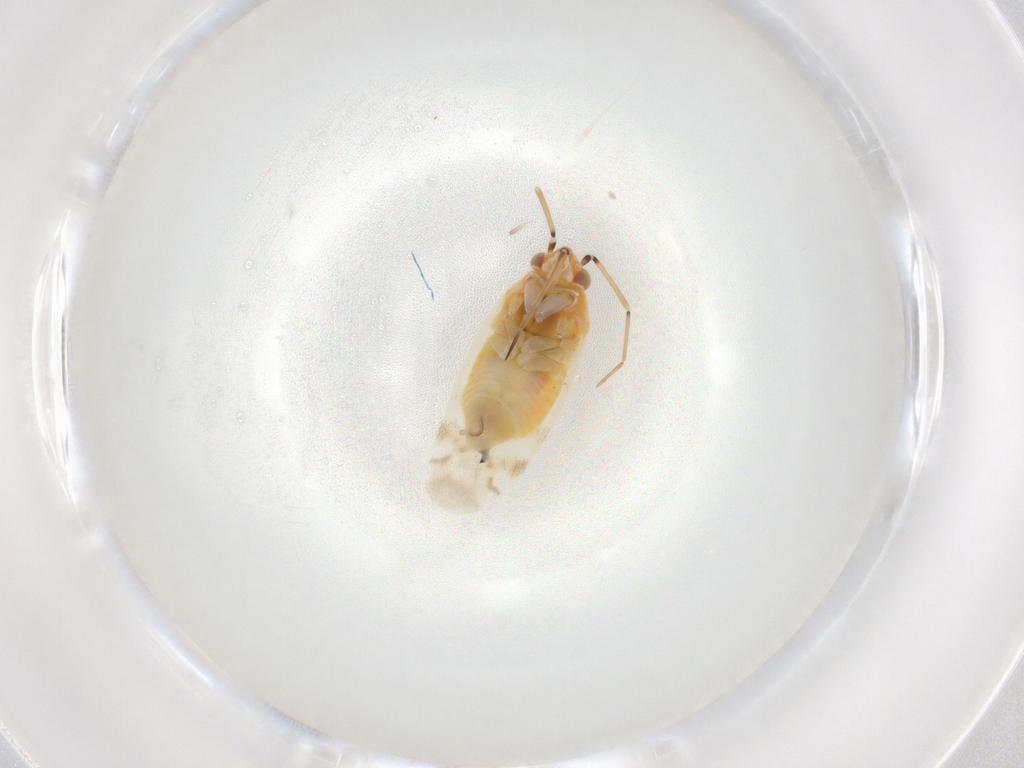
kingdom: Animalia
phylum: Arthropoda
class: Insecta
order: Hemiptera
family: Miridae
